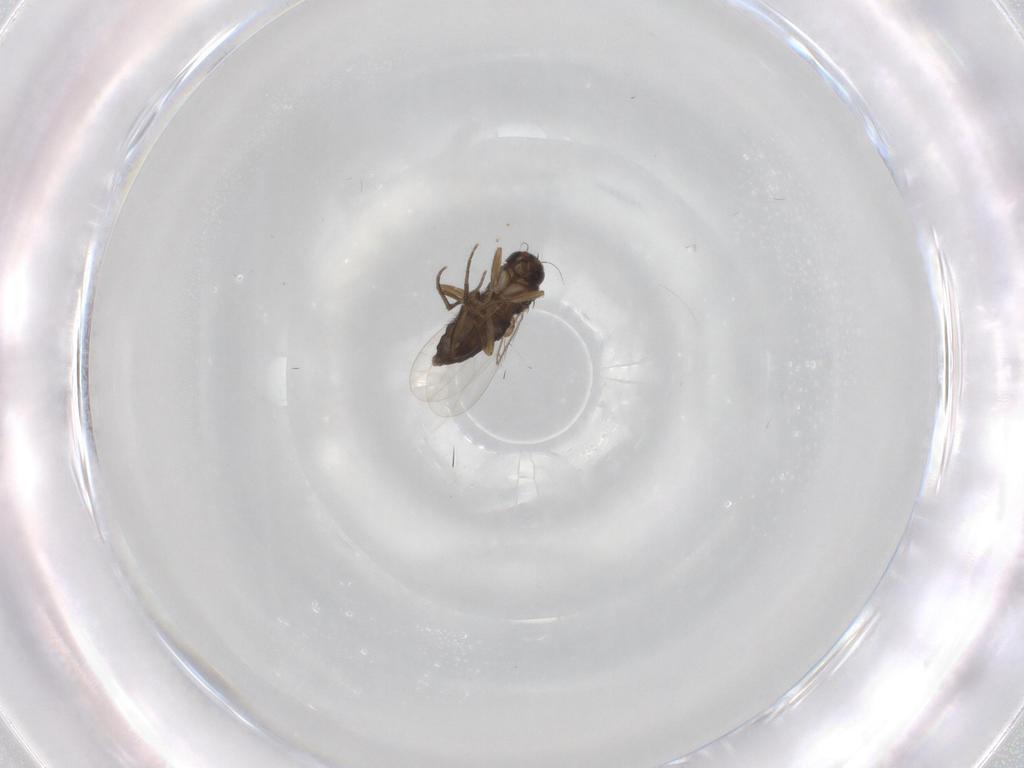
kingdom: Animalia
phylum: Arthropoda
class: Insecta
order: Diptera
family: Phoridae
